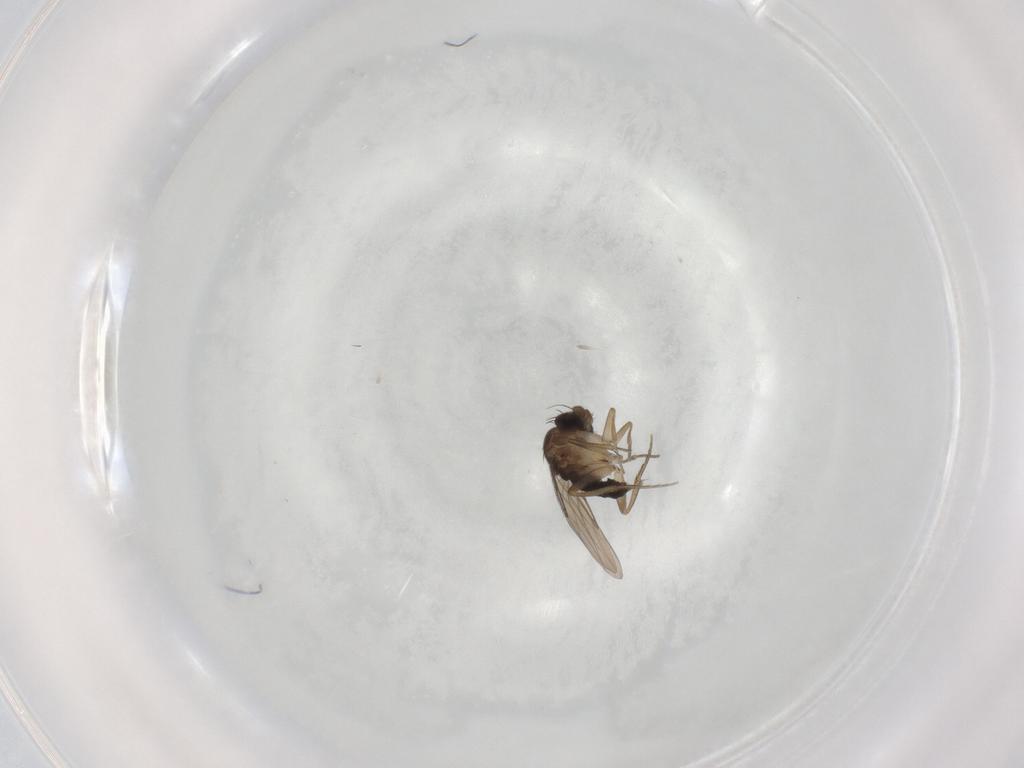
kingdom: Animalia
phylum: Arthropoda
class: Insecta
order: Diptera
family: Phoridae
